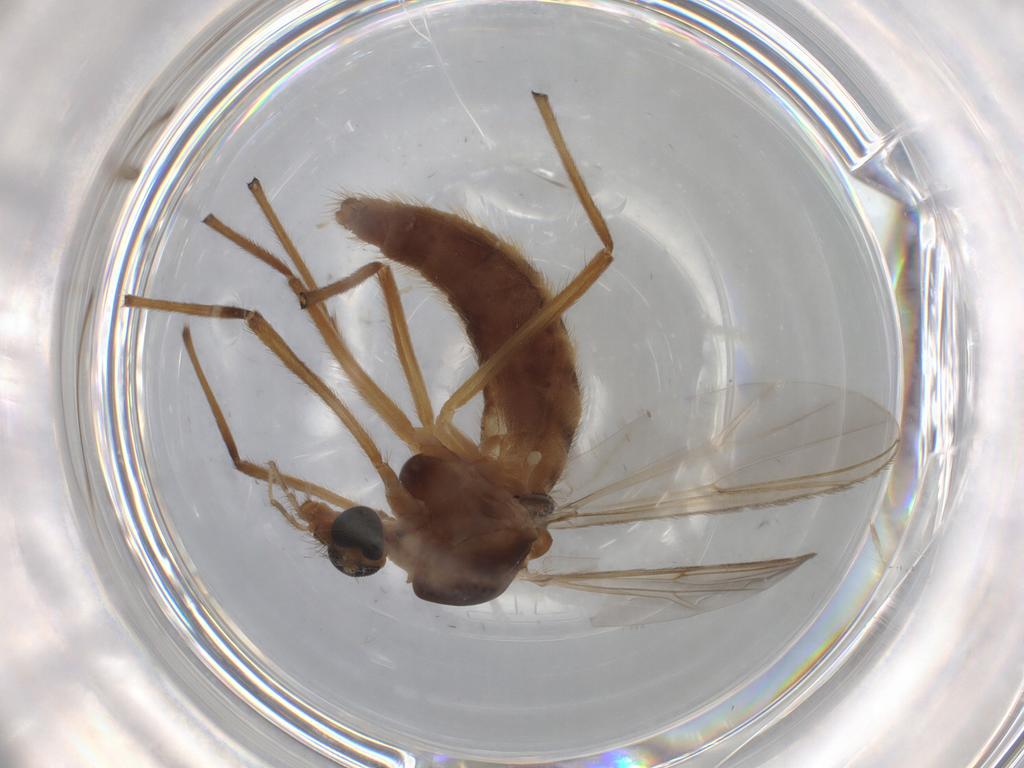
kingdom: Animalia
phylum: Arthropoda
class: Insecta
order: Diptera
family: Chironomidae
